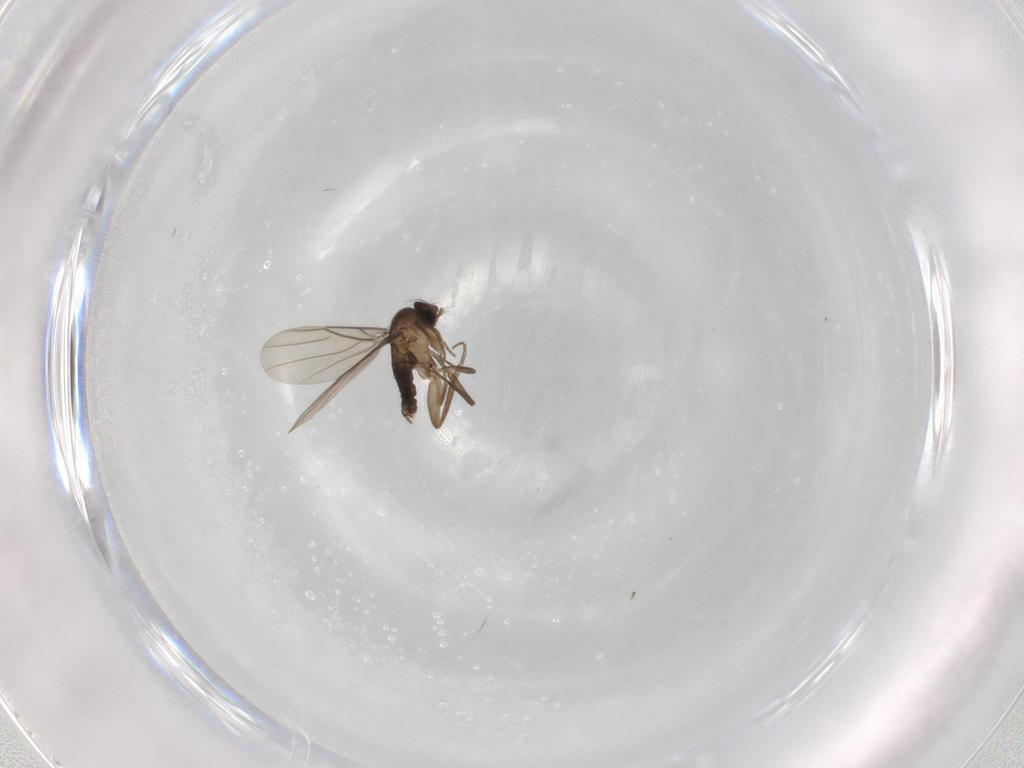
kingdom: Animalia
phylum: Arthropoda
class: Insecta
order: Diptera
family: Phoridae
